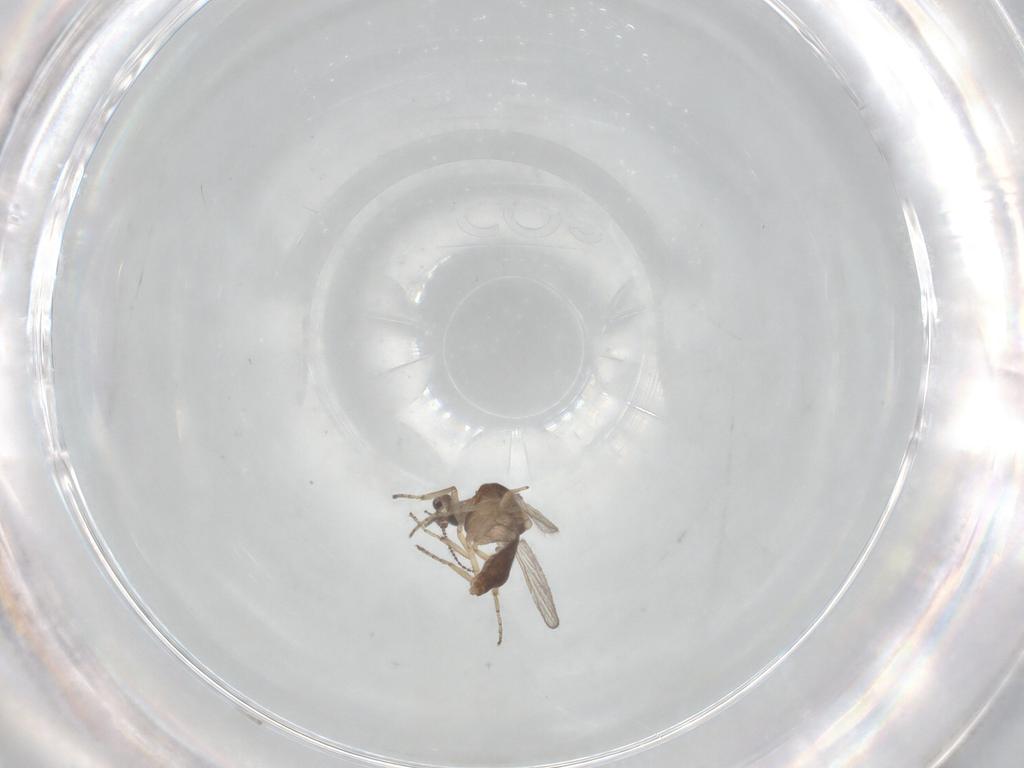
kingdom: Animalia
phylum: Arthropoda
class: Insecta
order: Diptera
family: Ceratopogonidae
